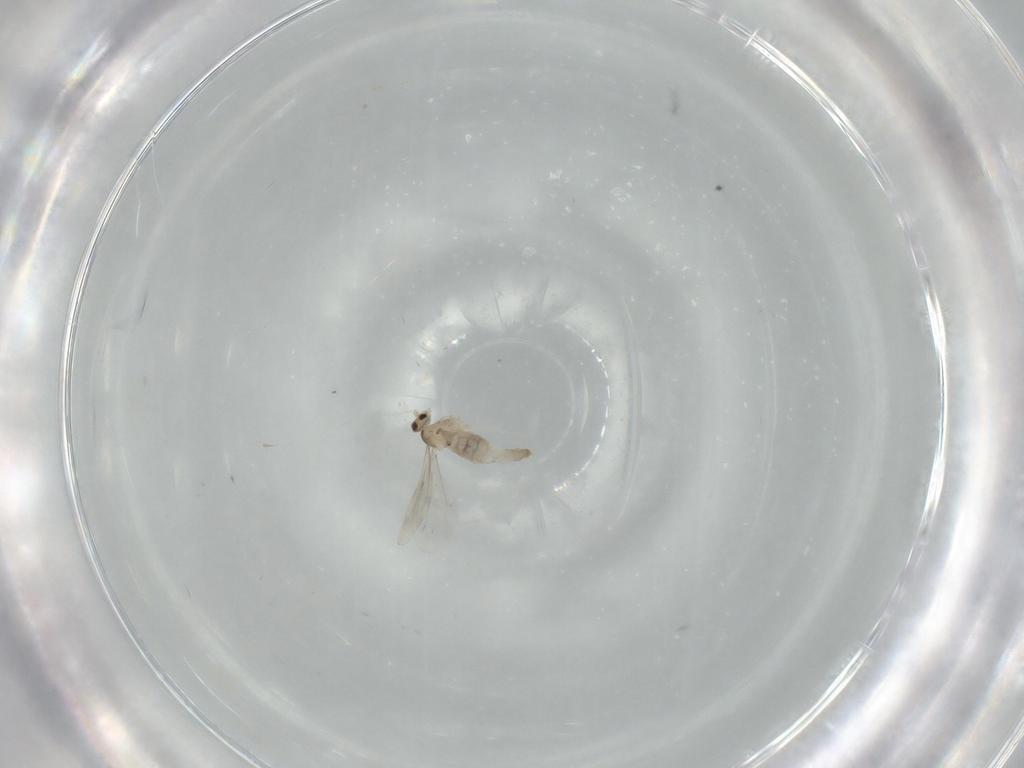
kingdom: Animalia
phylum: Arthropoda
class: Insecta
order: Diptera
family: Cecidomyiidae
